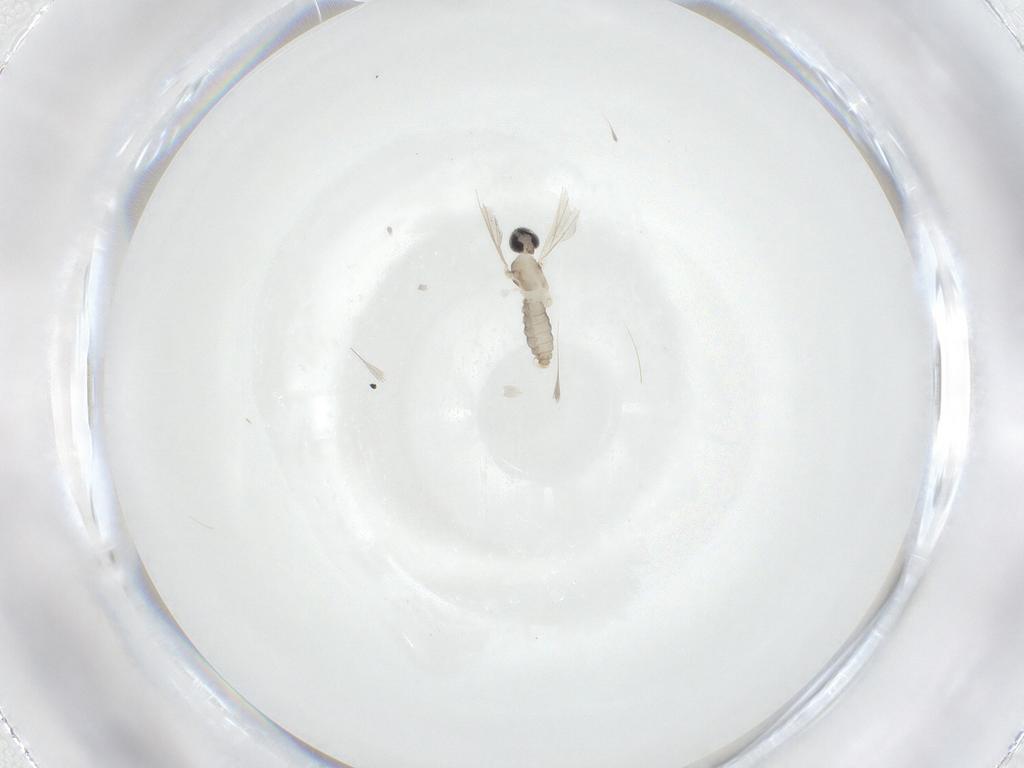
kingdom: Animalia
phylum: Arthropoda
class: Insecta
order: Diptera
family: Cecidomyiidae
